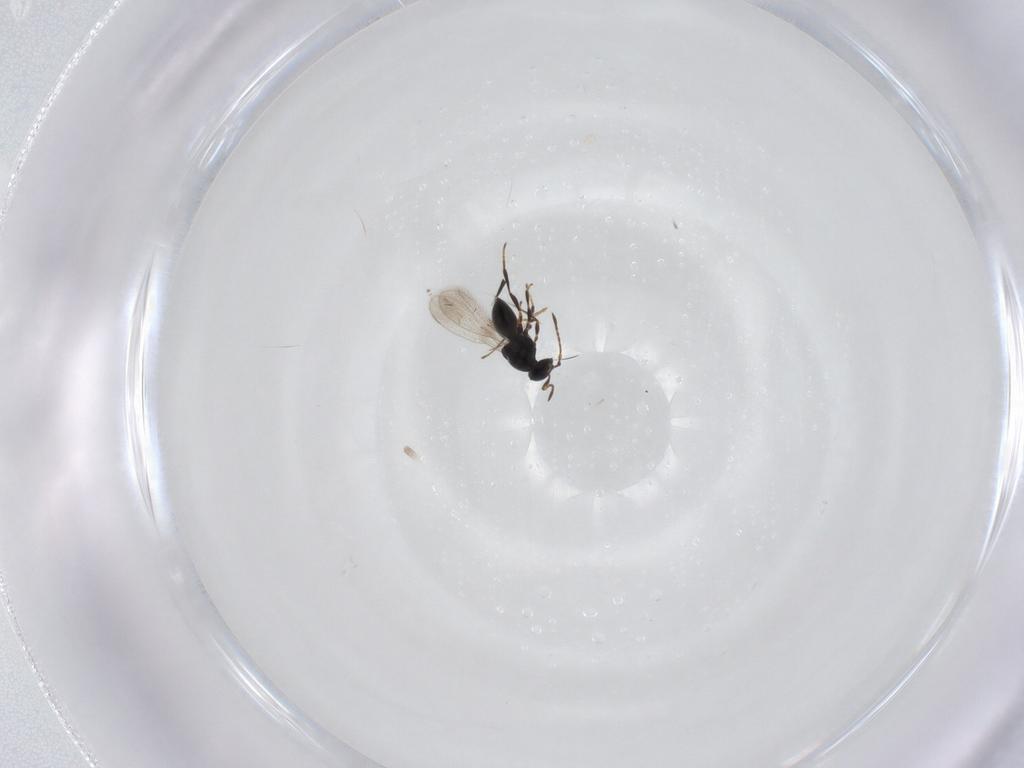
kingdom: Animalia
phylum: Arthropoda
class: Insecta
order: Hymenoptera
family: Platygastridae
